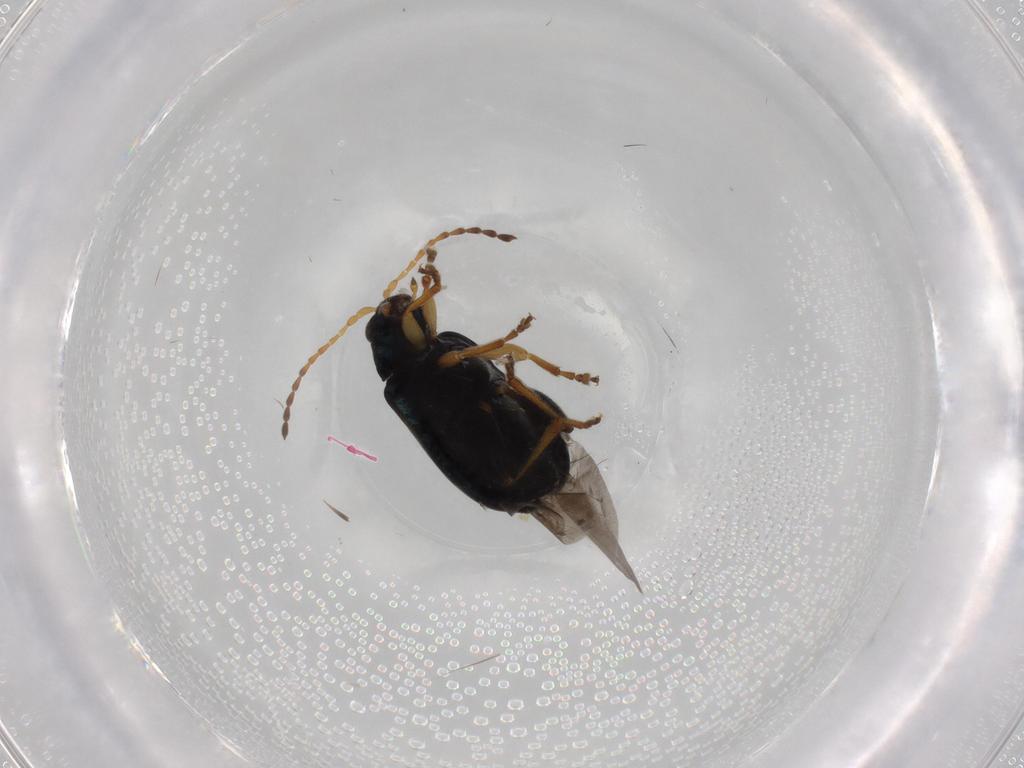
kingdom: Animalia
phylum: Arthropoda
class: Insecta
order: Coleoptera
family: Chrysomelidae
